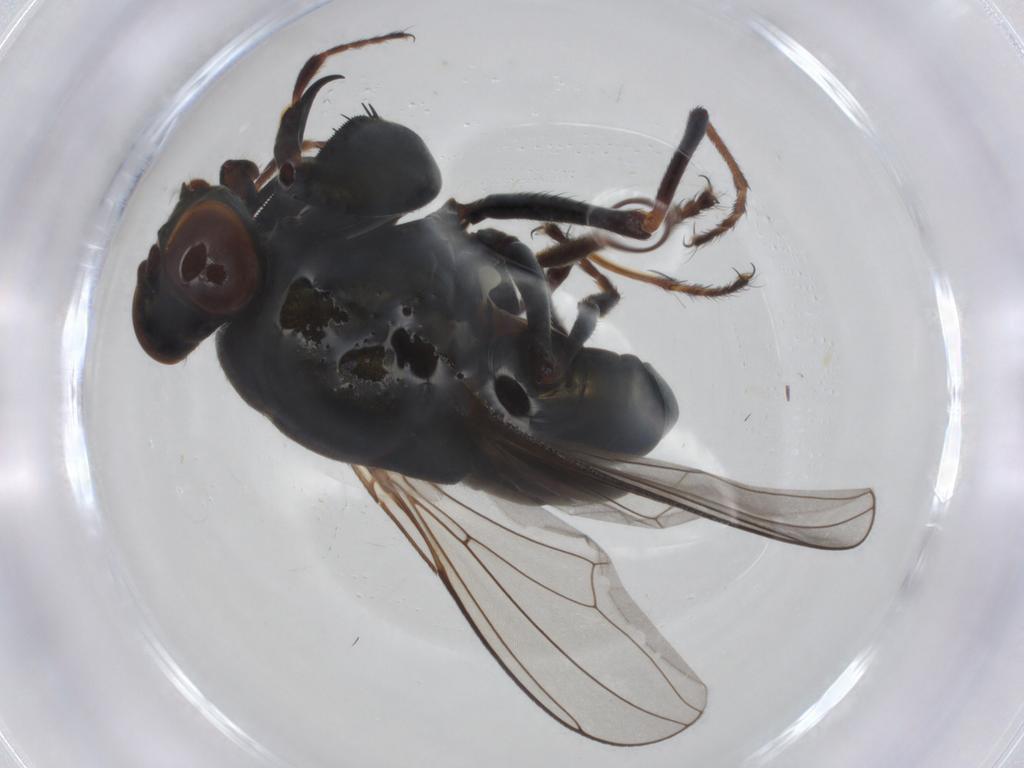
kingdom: Animalia
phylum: Arthropoda
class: Insecta
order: Diptera
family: Ephydridae
